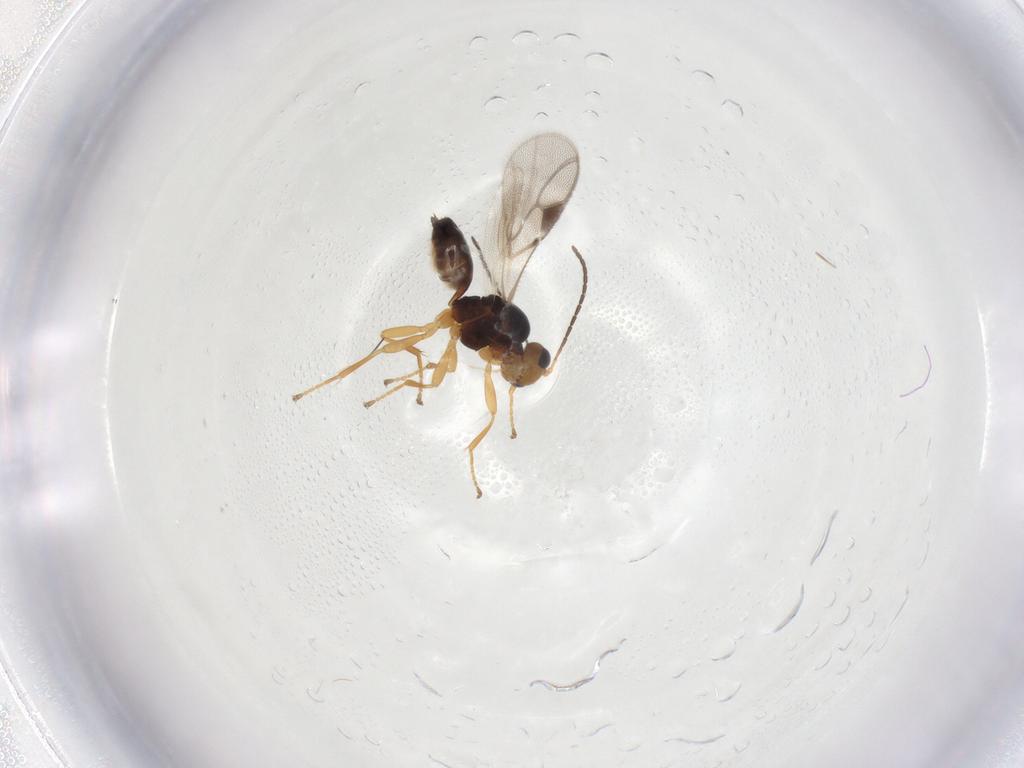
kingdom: Animalia
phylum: Arthropoda
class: Insecta
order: Hymenoptera
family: Braconidae
